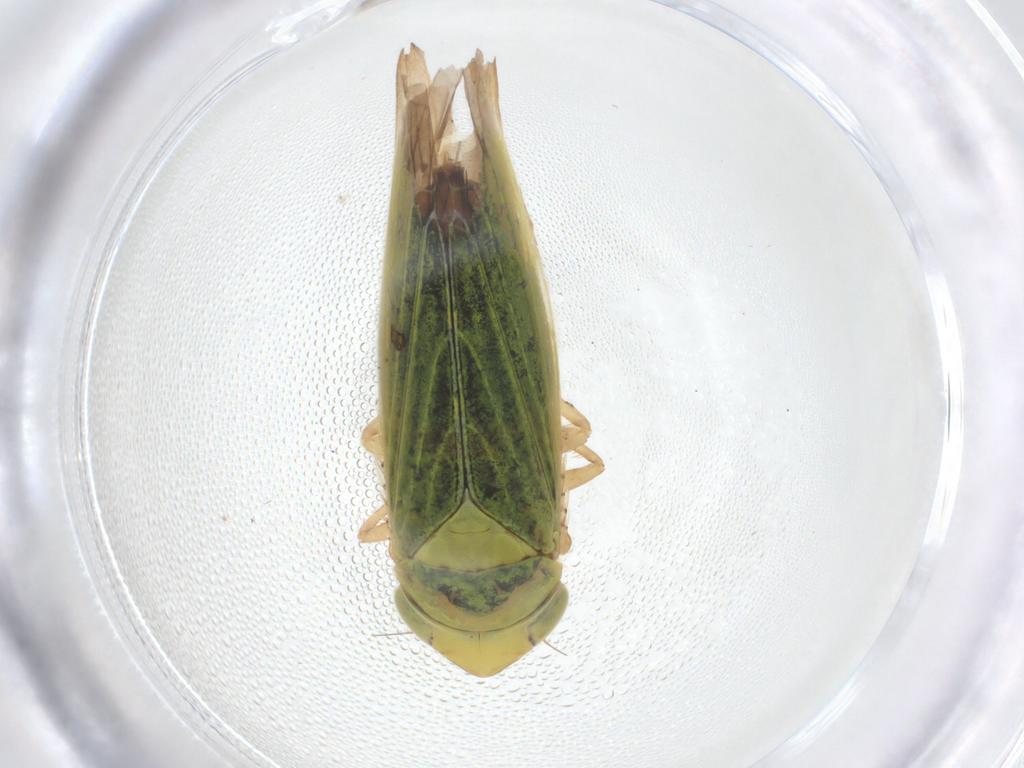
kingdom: Animalia
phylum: Arthropoda
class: Insecta
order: Hemiptera
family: Cicadellidae
